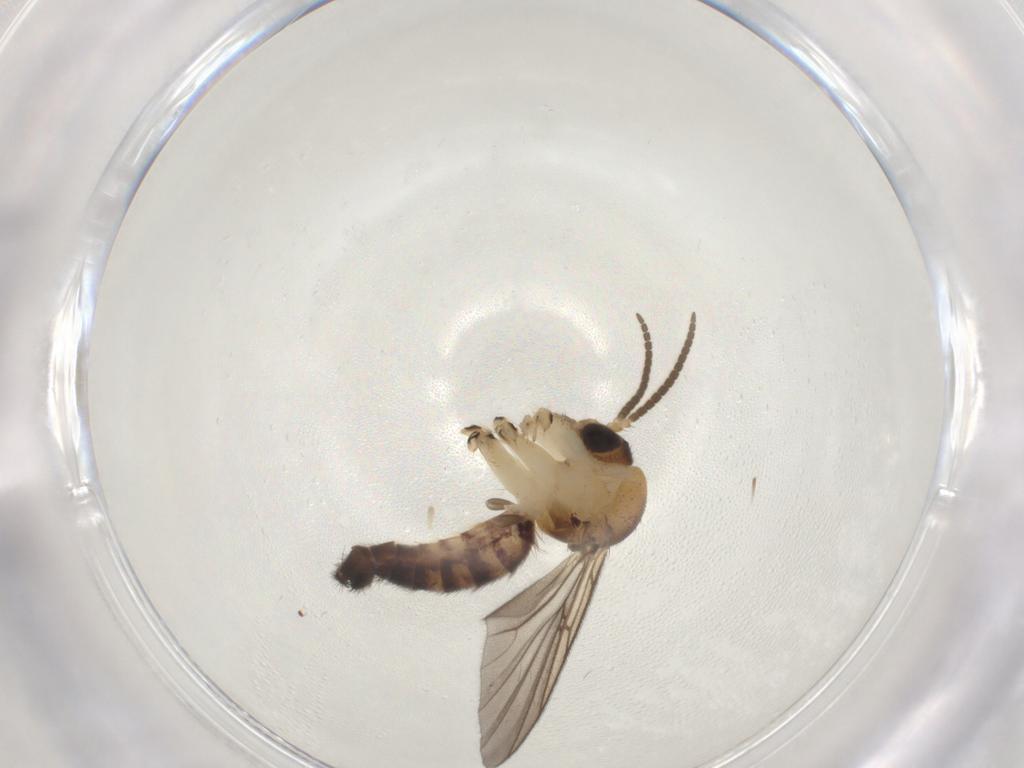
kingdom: Animalia
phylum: Arthropoda
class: Insecta
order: Diptera
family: Mycetophilidae
